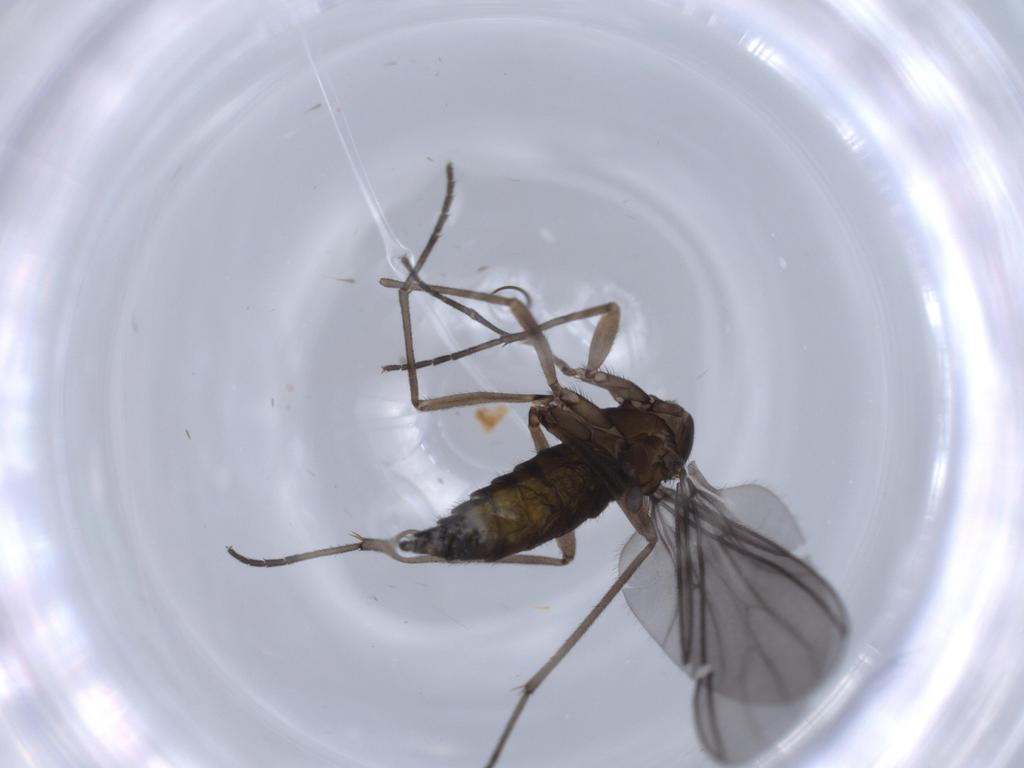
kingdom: Animalia
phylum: Arthropoda
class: Insecta
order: Diptera
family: Sciaridae
